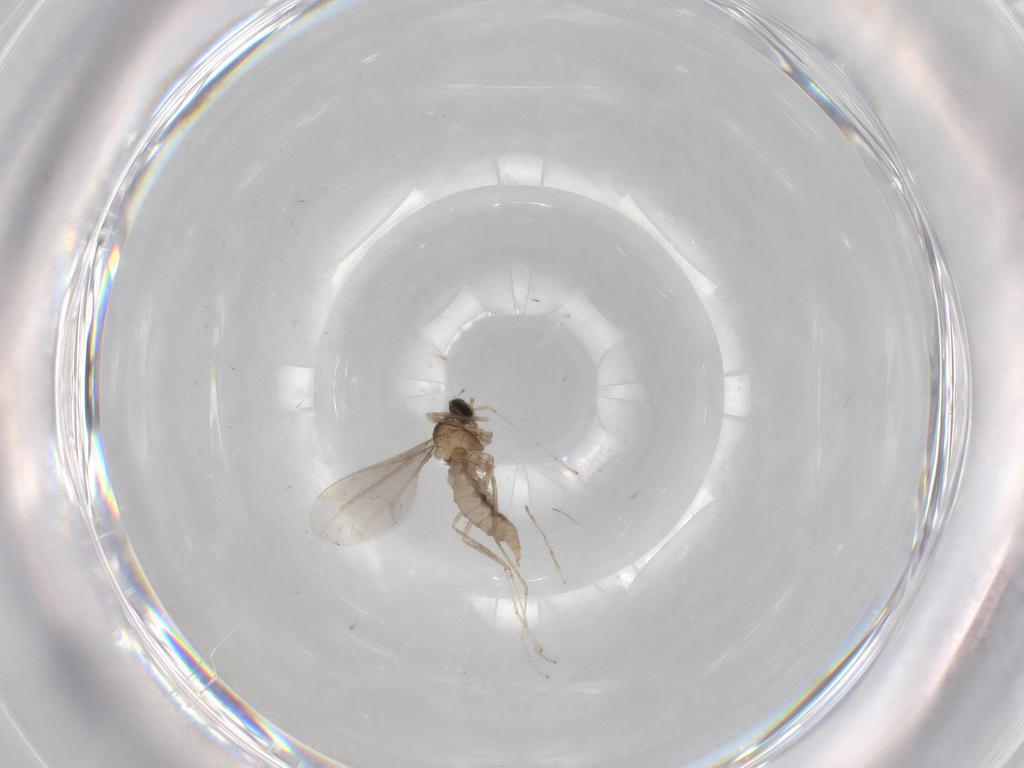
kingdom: Animalia
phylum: Arthropoda
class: Insecta
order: Diptera
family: Cecidomyiidae
